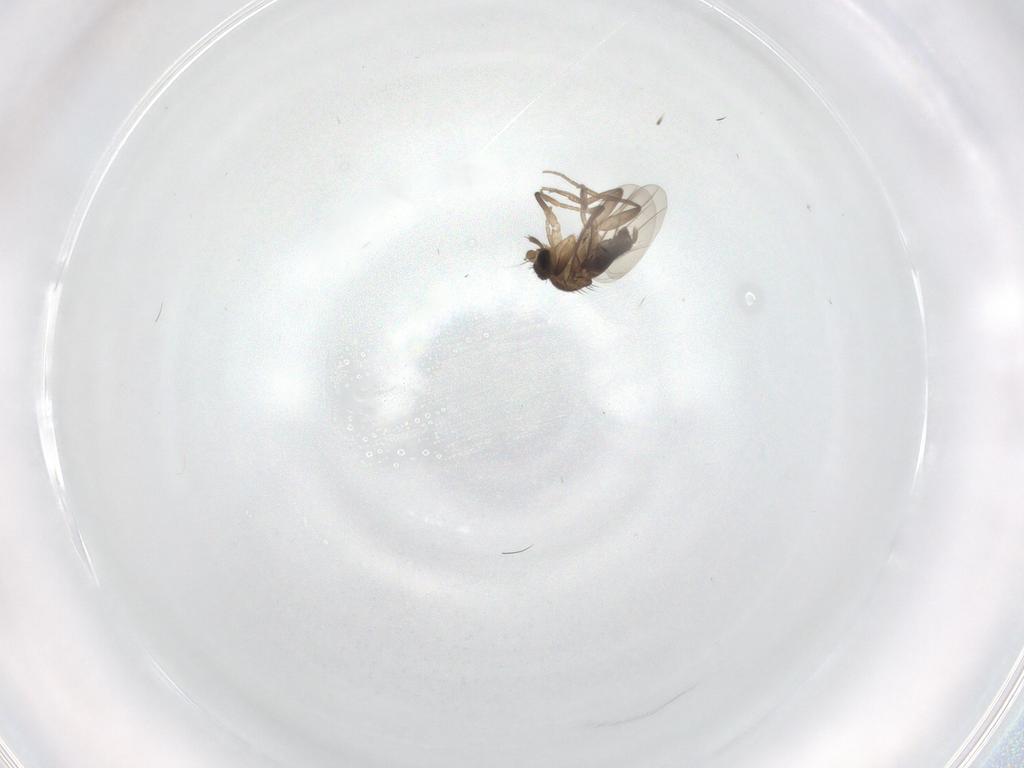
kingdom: Animalia
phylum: Arthropoda
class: Insecta
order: Diptera
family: Phoridae
